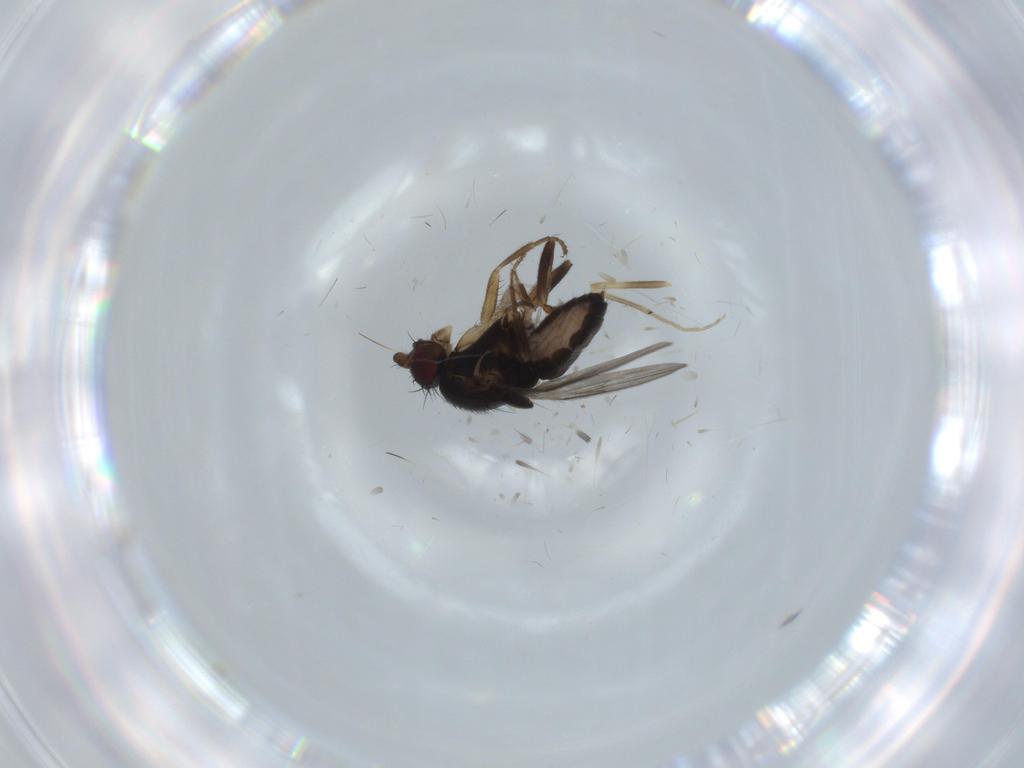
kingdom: Animalia
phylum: Arthropoda
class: Insecta
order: Diptera
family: Sphaeroceridae
